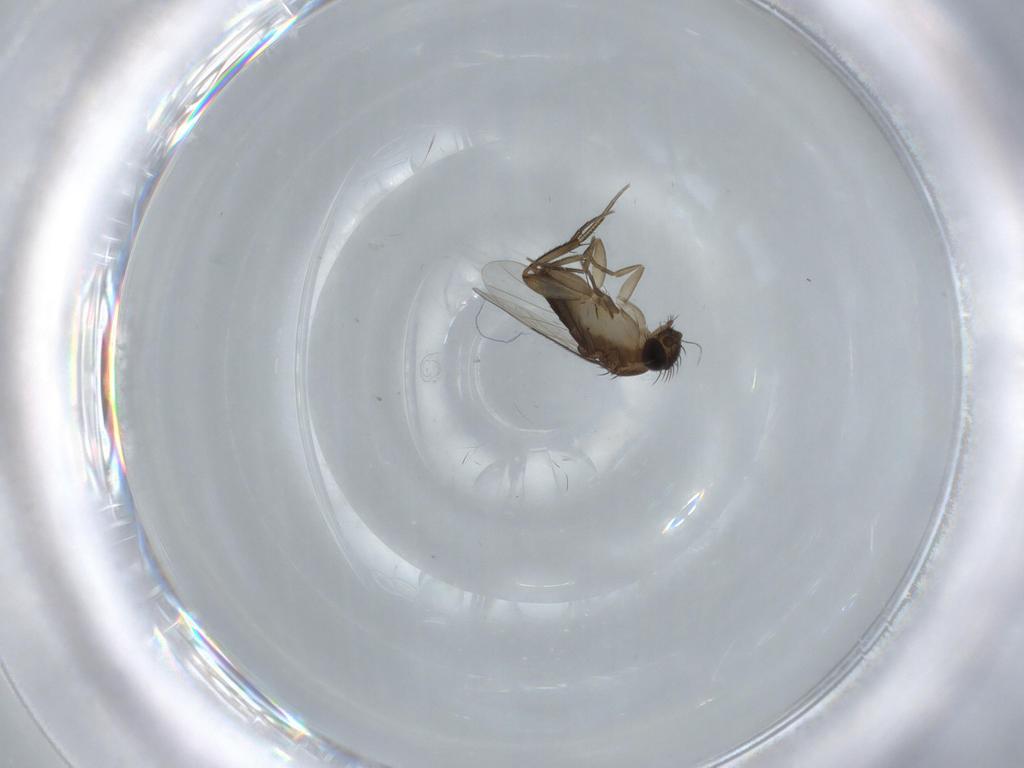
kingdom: Animalia
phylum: Arthropoda
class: Insecta
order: Diptera
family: Phoridae
